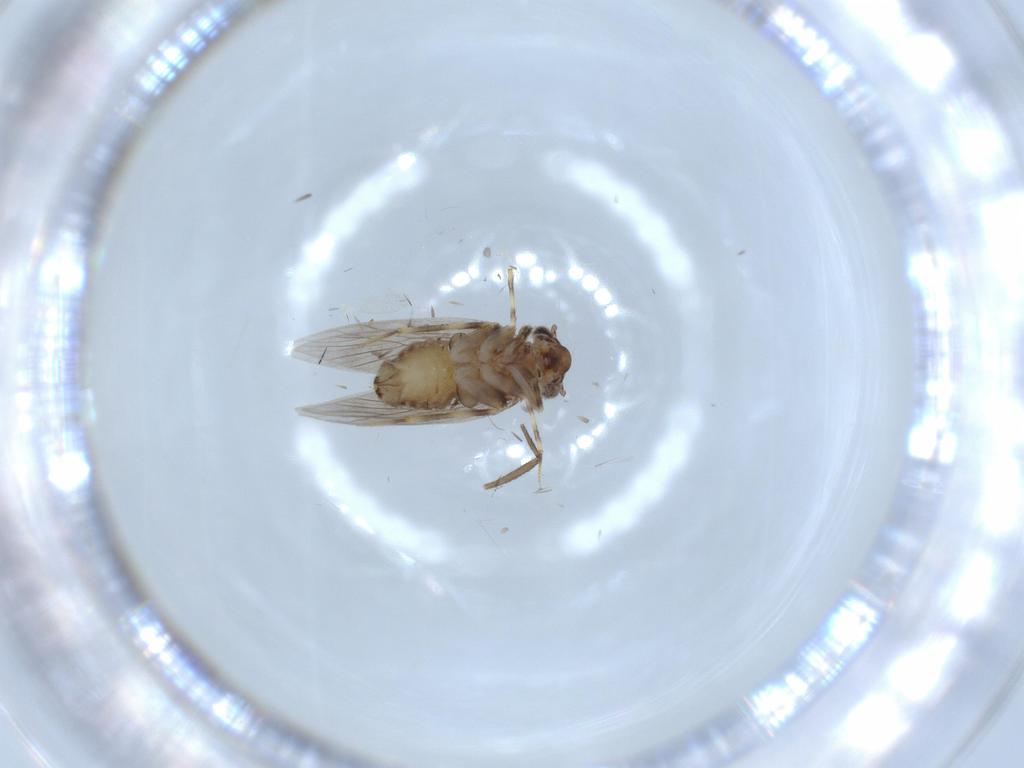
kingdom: Animalia
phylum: Arthropoda
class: Insecta
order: Psocodea
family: Lepidopsocidae
